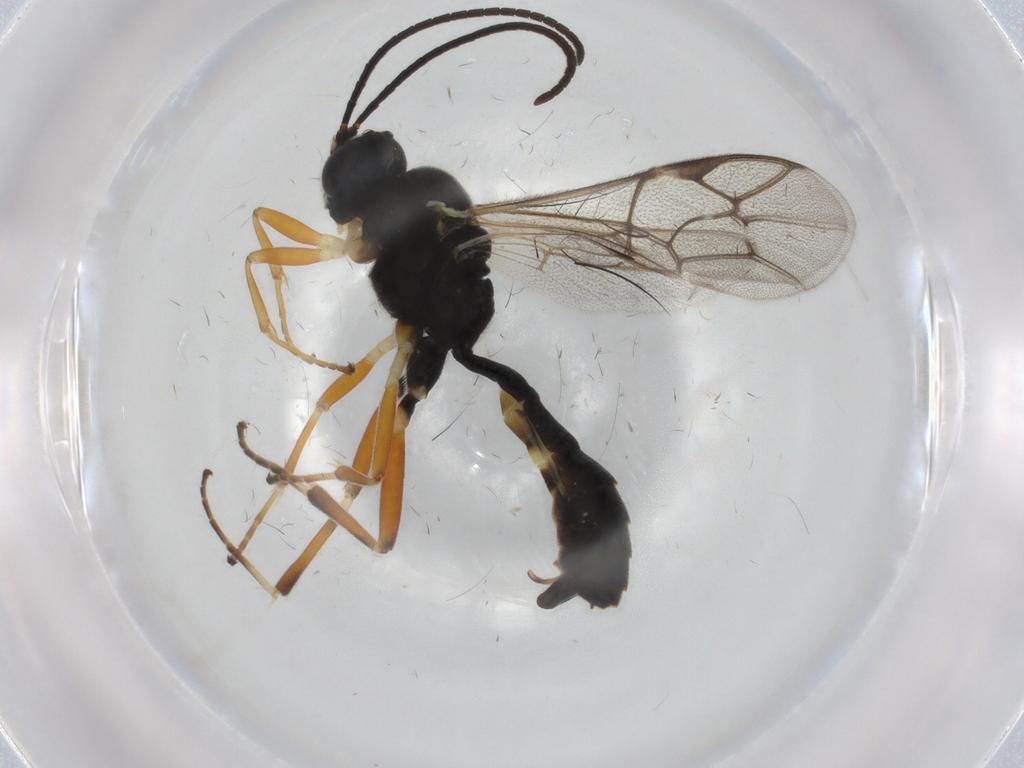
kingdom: Animalia
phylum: Arthropoda
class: Insecta
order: Hymenoptera
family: Ichneumonidae
